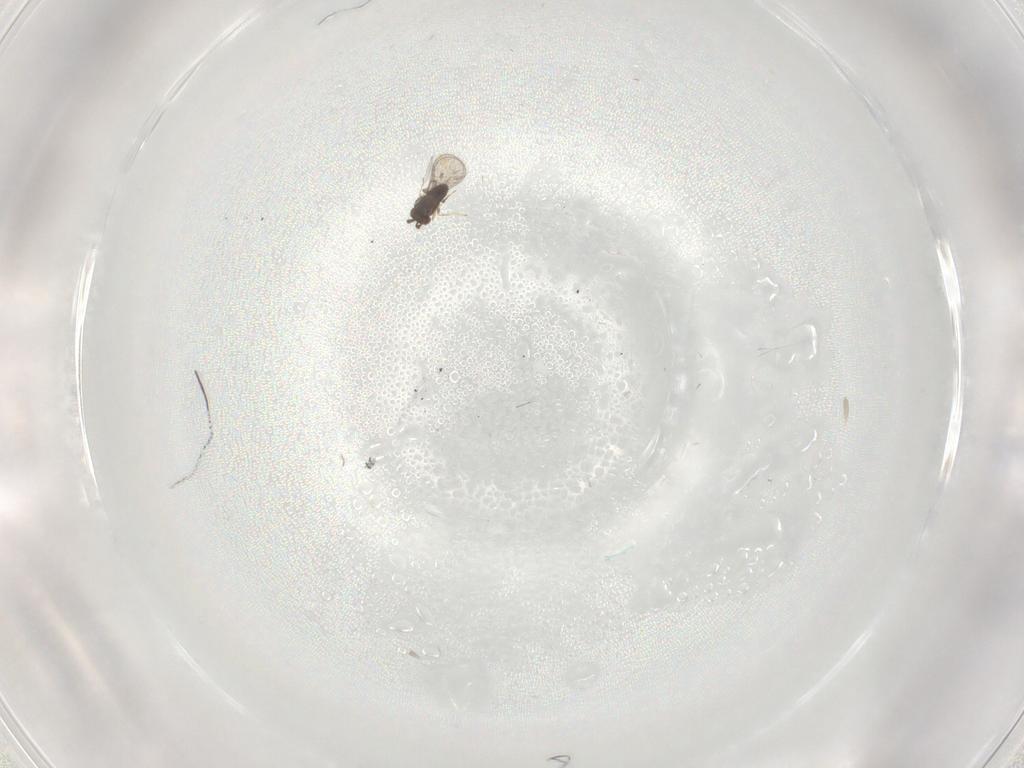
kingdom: Animalia
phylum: Arthropoda
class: Insecta
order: Hymenoptera
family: Trichogrammatidae
